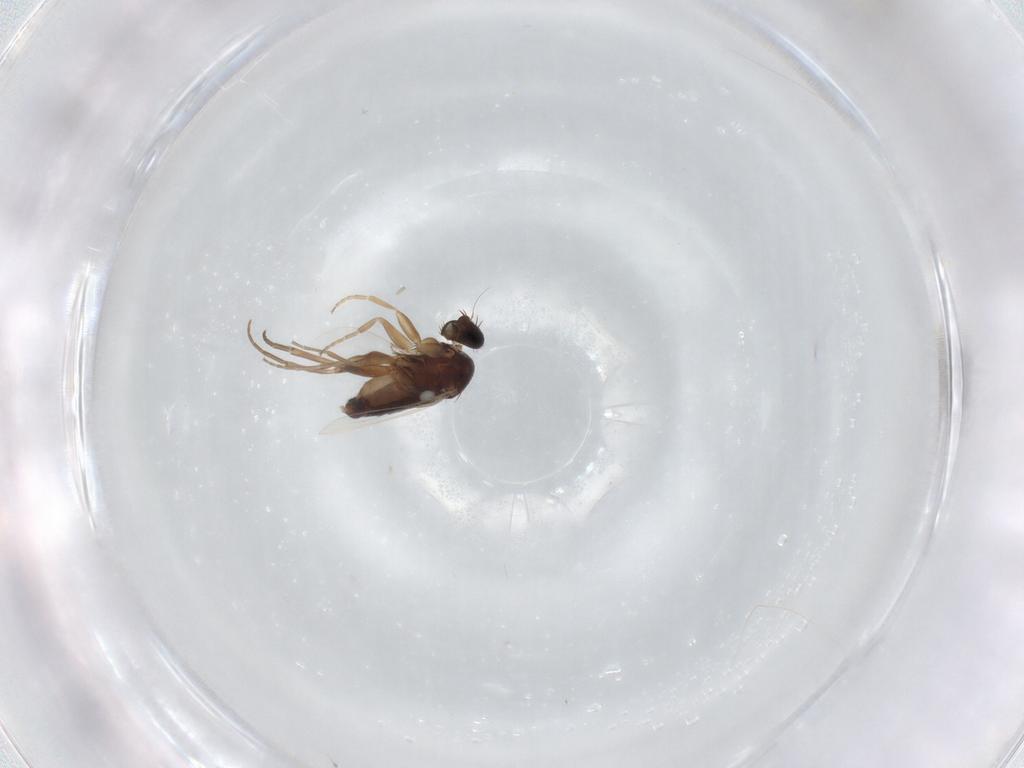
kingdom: Animalia
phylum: Arthropoda
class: Insecta
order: Diptera
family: Phoridae
